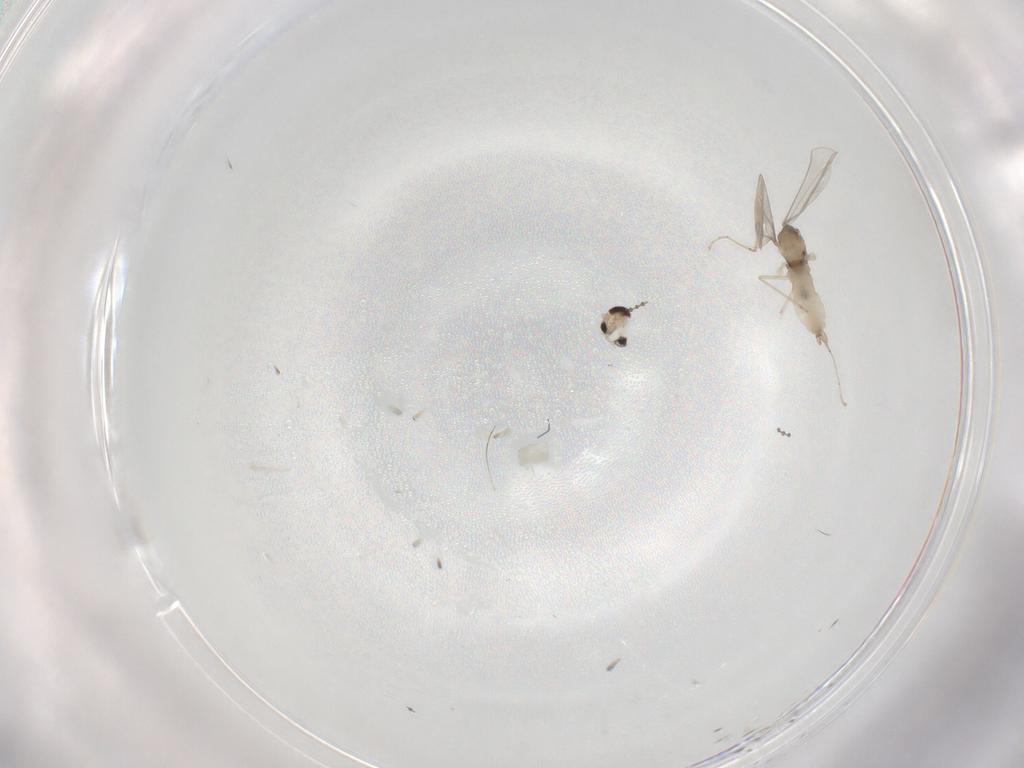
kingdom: Animalia
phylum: Arthropoda
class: Insecta
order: Diptera
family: Cecidomyiidae
